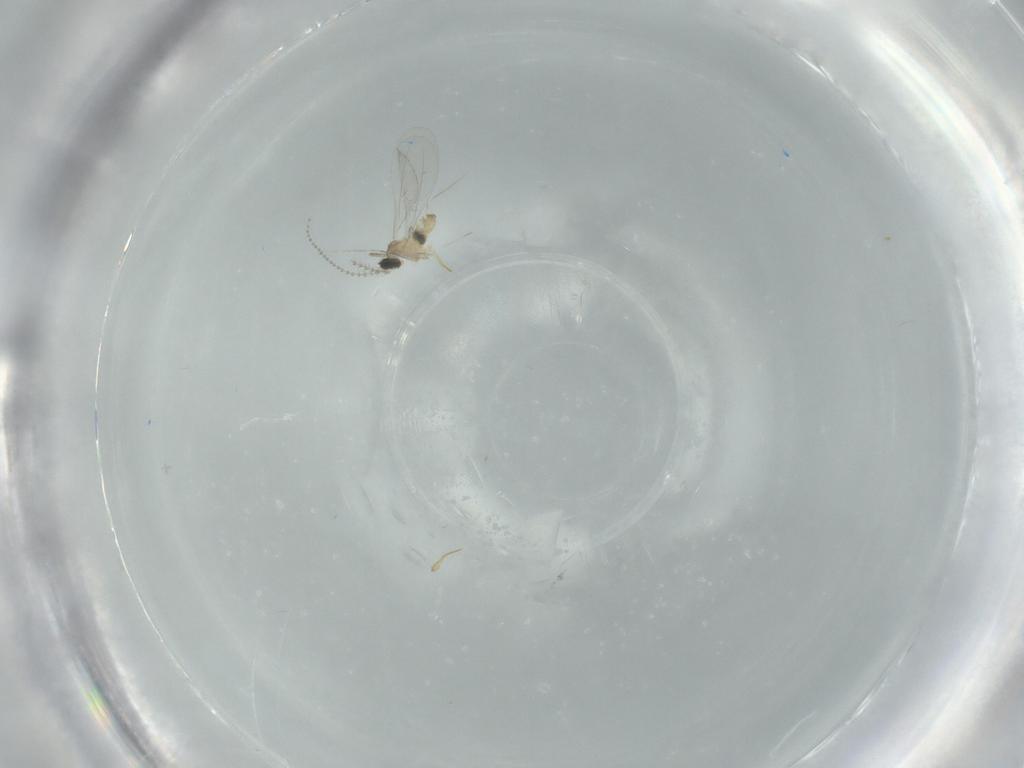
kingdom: Animalia
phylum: Arthropoda
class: Insecta
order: Diptera
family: Cecidomyiidae
